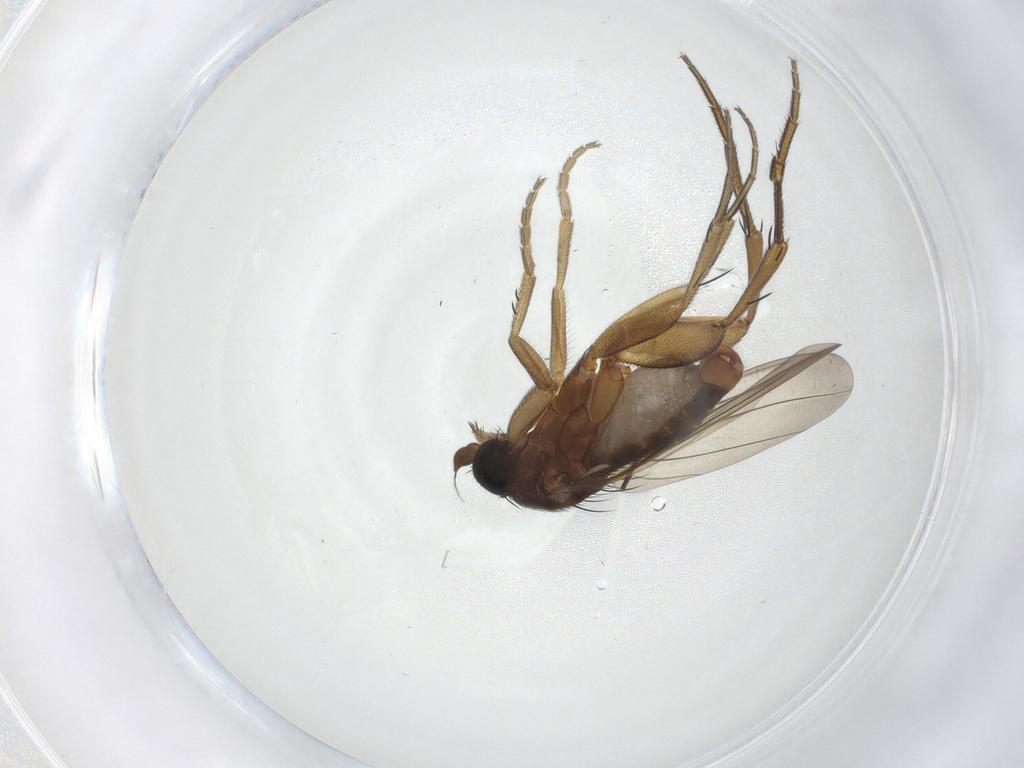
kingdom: Animalia
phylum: Arthropoda
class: Insecta
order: Diptera
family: Phoridae
